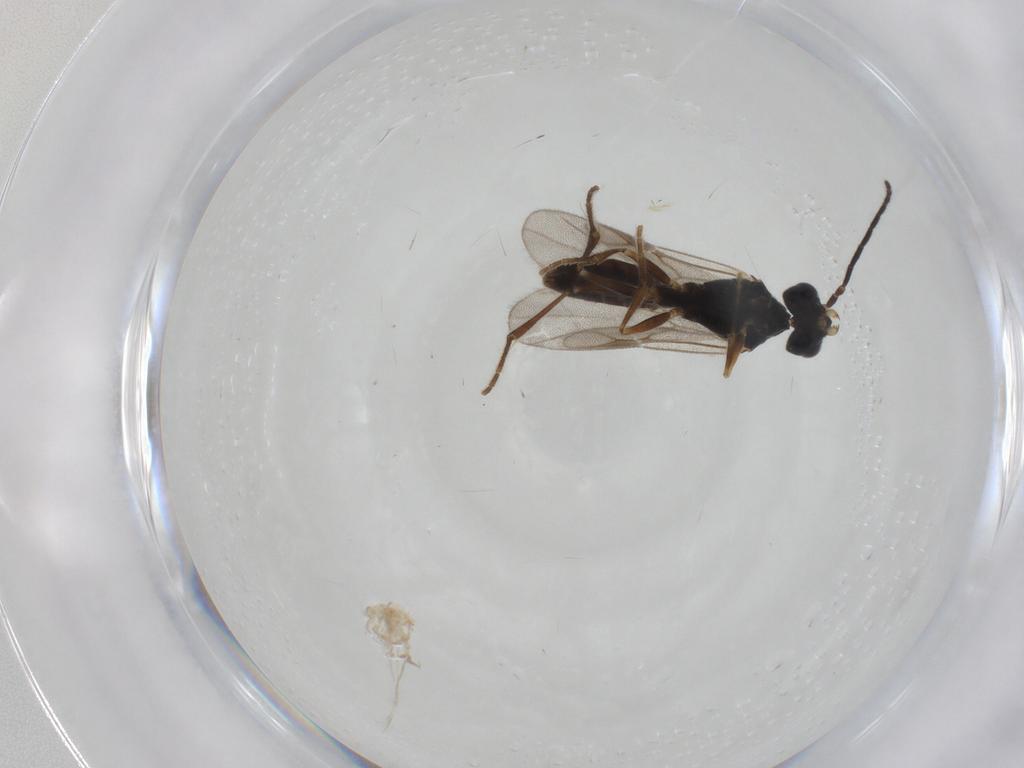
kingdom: Animalia
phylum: Arthropoda
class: Insecta
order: Hymenoptera
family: Dryinidae
